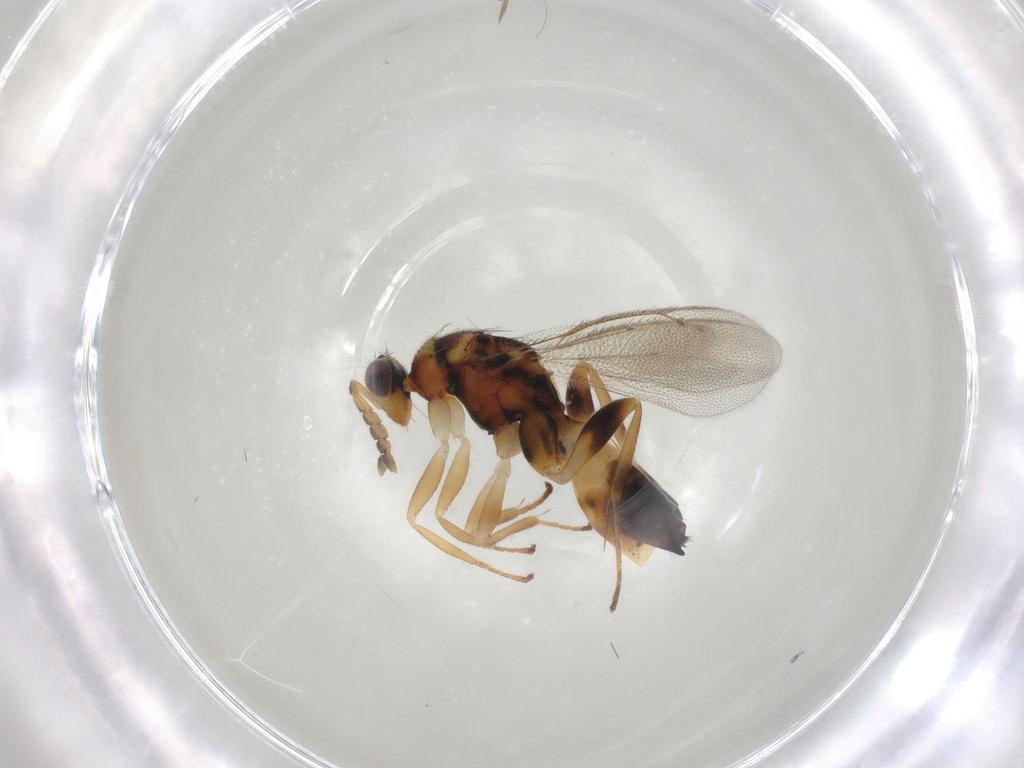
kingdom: Animalia
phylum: Arthropoda
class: Insecta
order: Hymenoptera
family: Eulophidae
